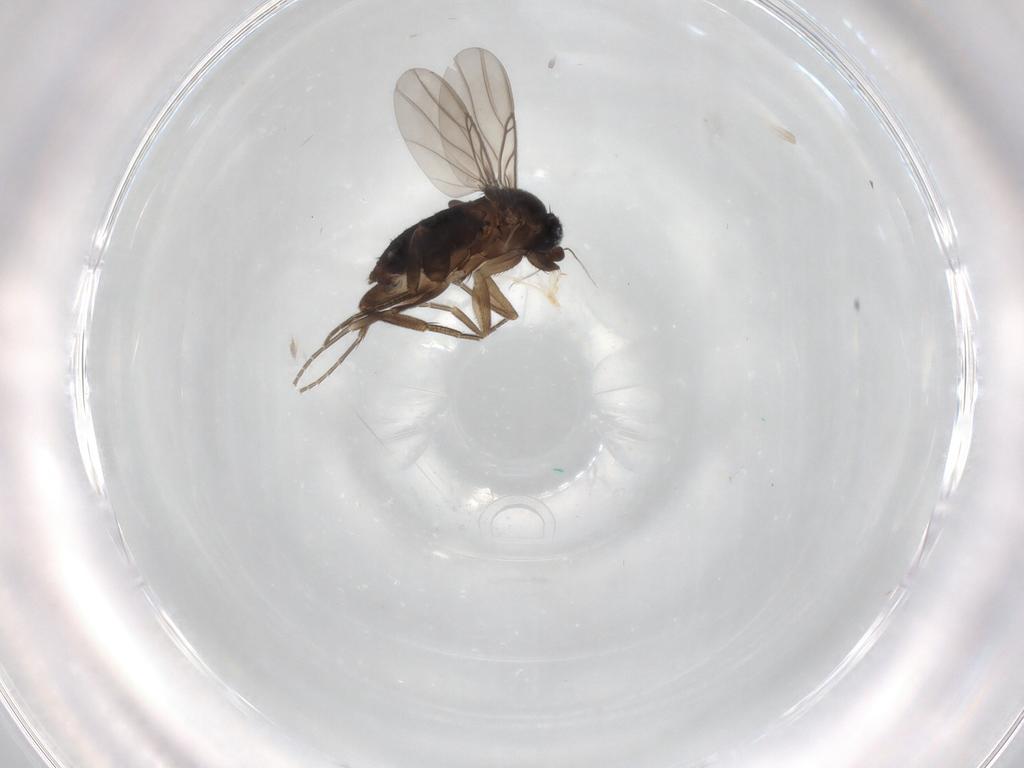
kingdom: Animalia
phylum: Arthropoda
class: Insecta
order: Diptera
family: Phoridae
